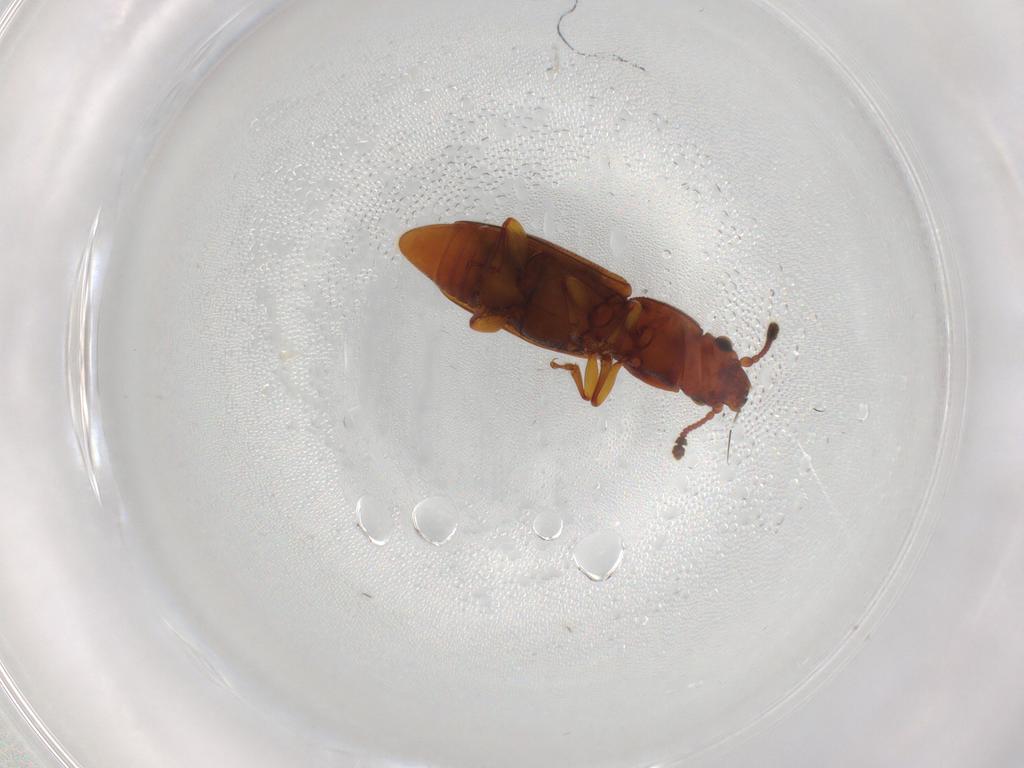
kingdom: Animalia
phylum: Arthropoda
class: Insecta
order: Coleoptera
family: Monotomidae
